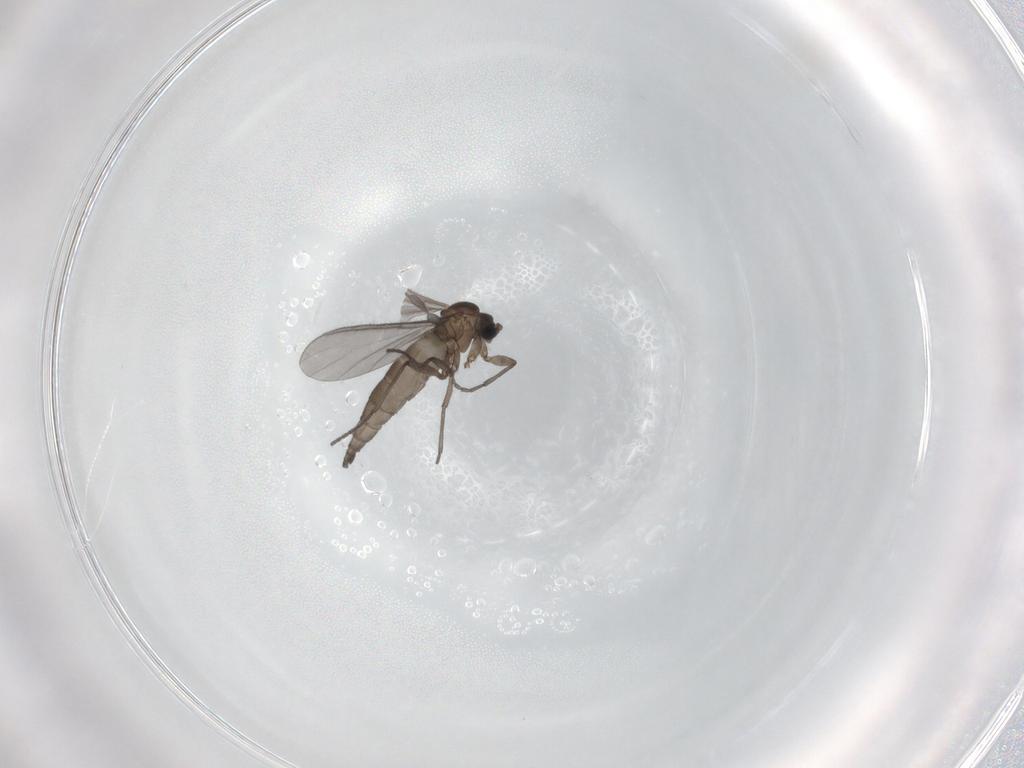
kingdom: Animalia
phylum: Arthropoda
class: Insecta
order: Diptera
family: Sciaridae
